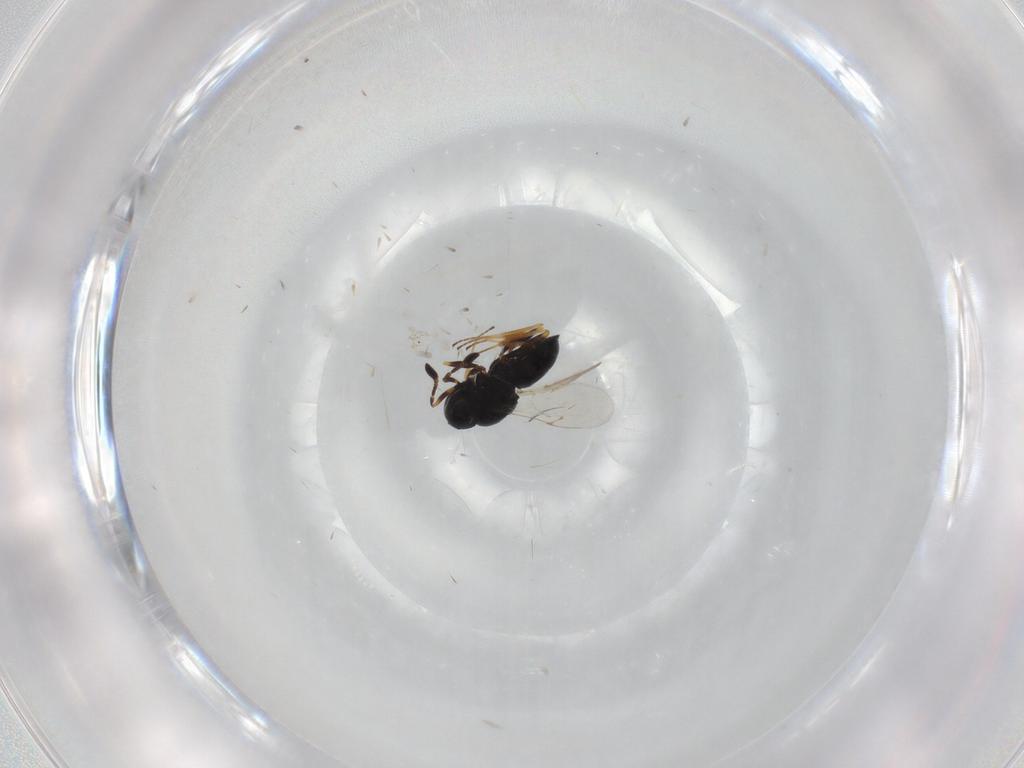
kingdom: Animalia
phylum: Arthropoda
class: Insecta
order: Hymenoptera
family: Scelionidae
